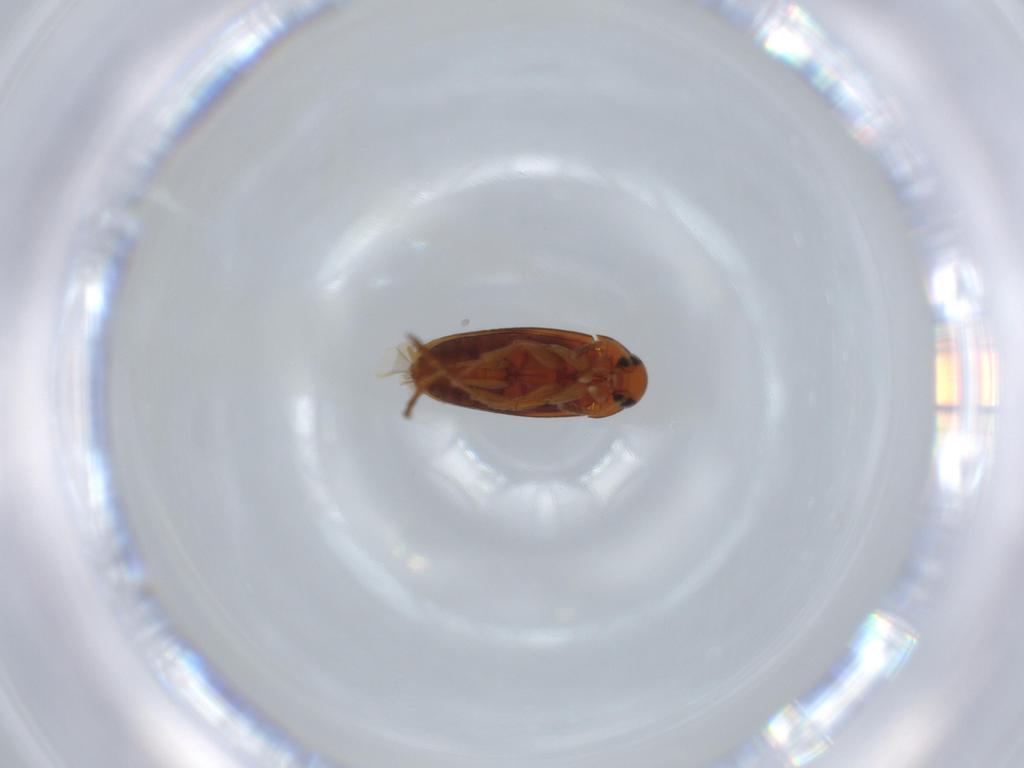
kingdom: Animalia
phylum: Arthropoda
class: Insecta
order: Coleoptera
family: Scraptiidae
